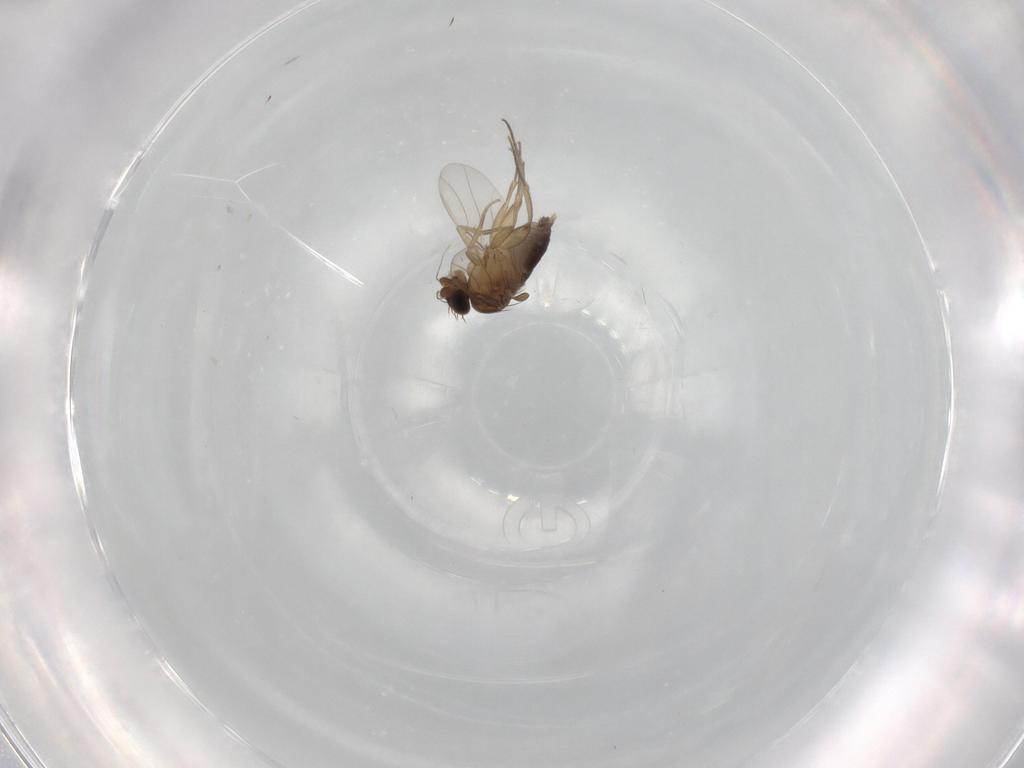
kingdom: Animalia
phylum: Arthropoda
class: Insecta
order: Diptera
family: Phoridae
